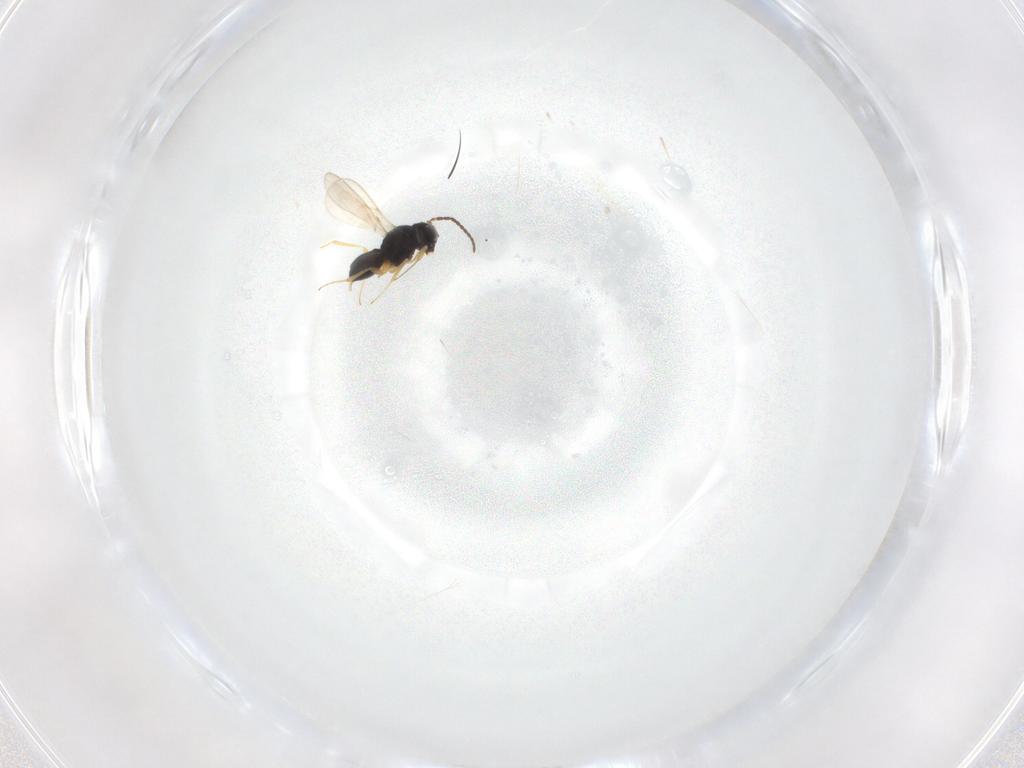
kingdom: Animalia
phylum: Arthropoda
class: Insecta
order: Hymenoptera
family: Scelionidae
